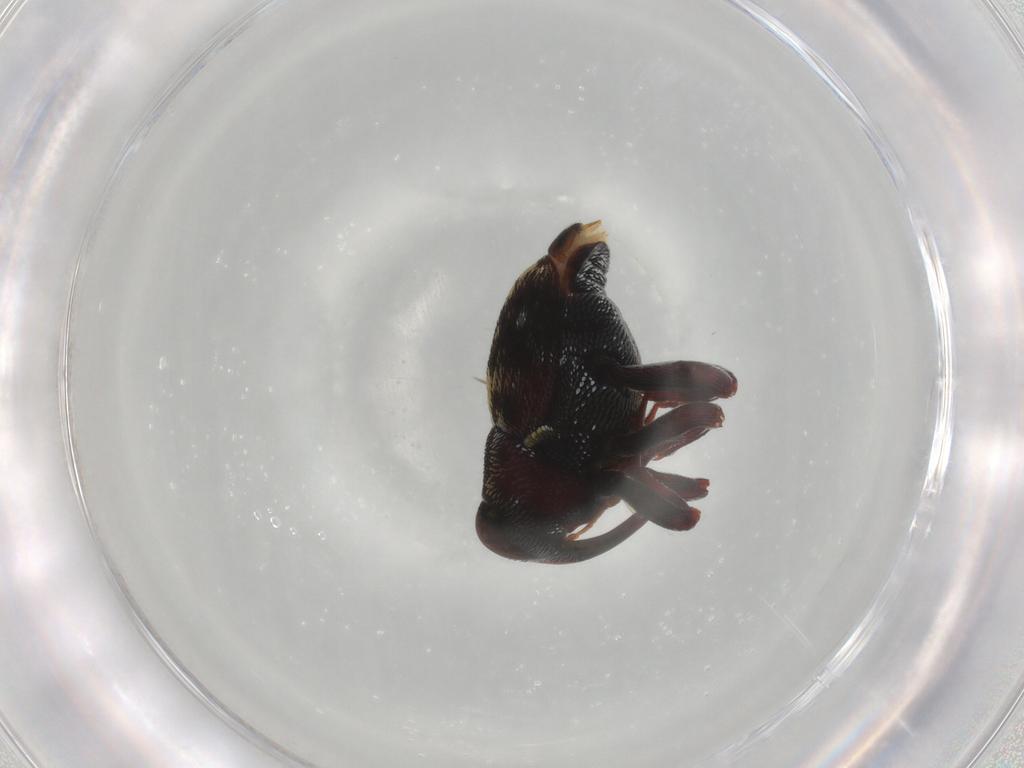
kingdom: Animalia
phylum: Arthropoda
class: Insecta
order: Coleoptera
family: Curculionidae
